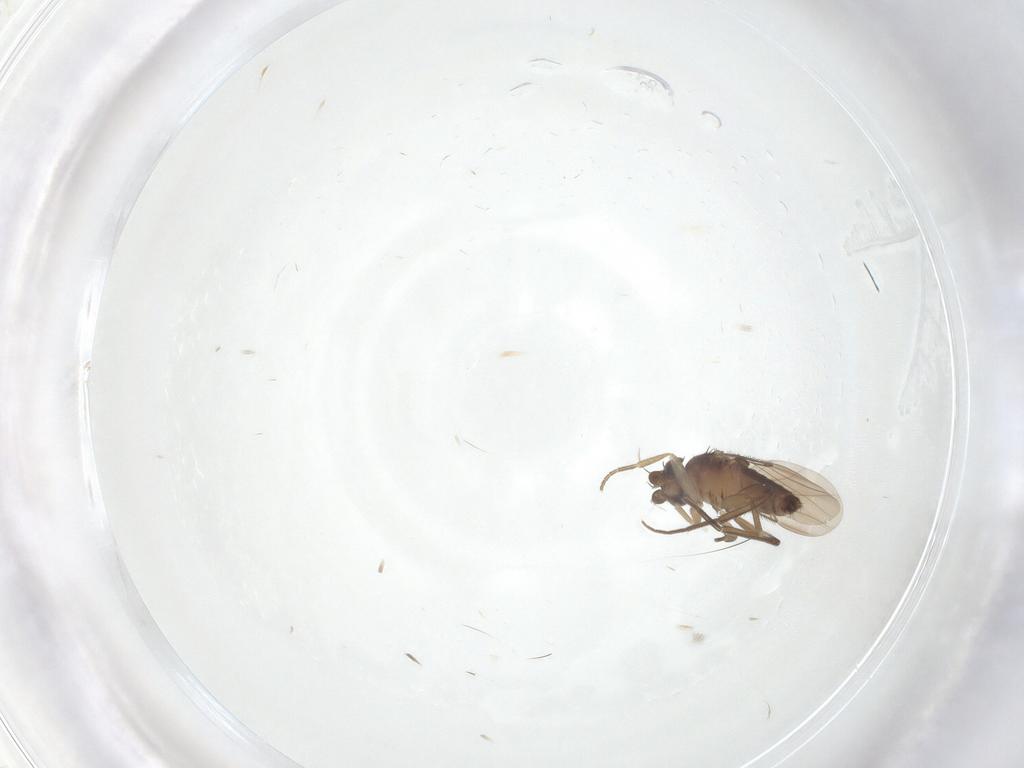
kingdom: Animalia
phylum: Arthropoda
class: Insecta
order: Diptera
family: Phoridae
